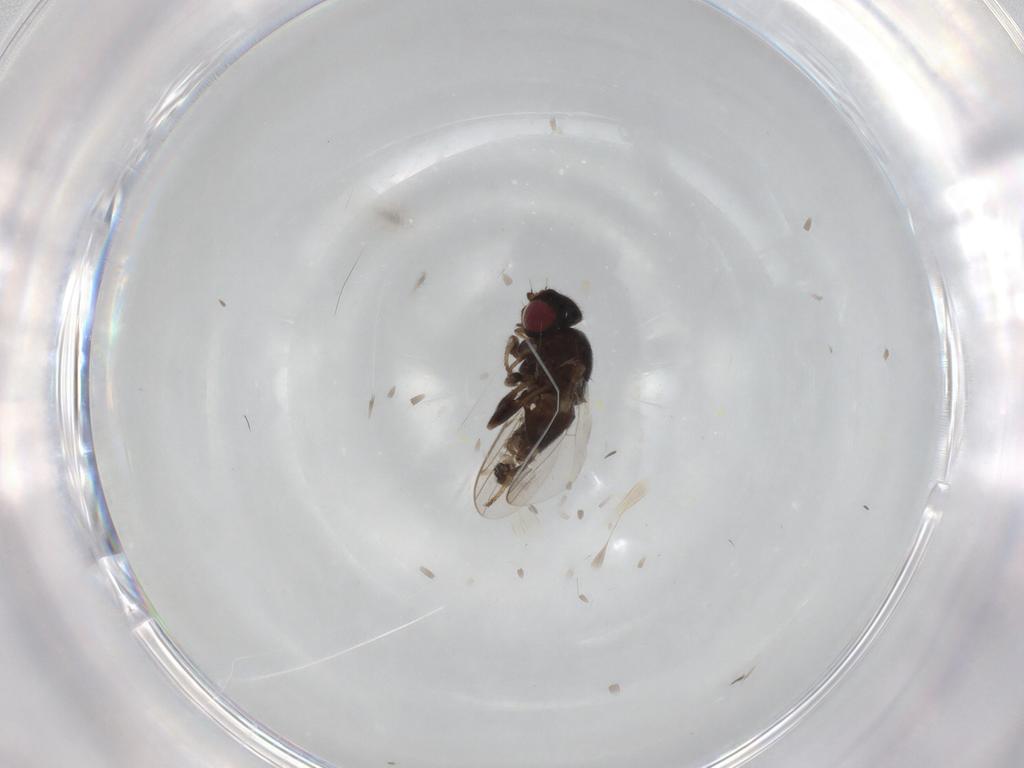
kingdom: Animalia
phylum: Arthropoda
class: Insecta
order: Diptera
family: Chloropidae
